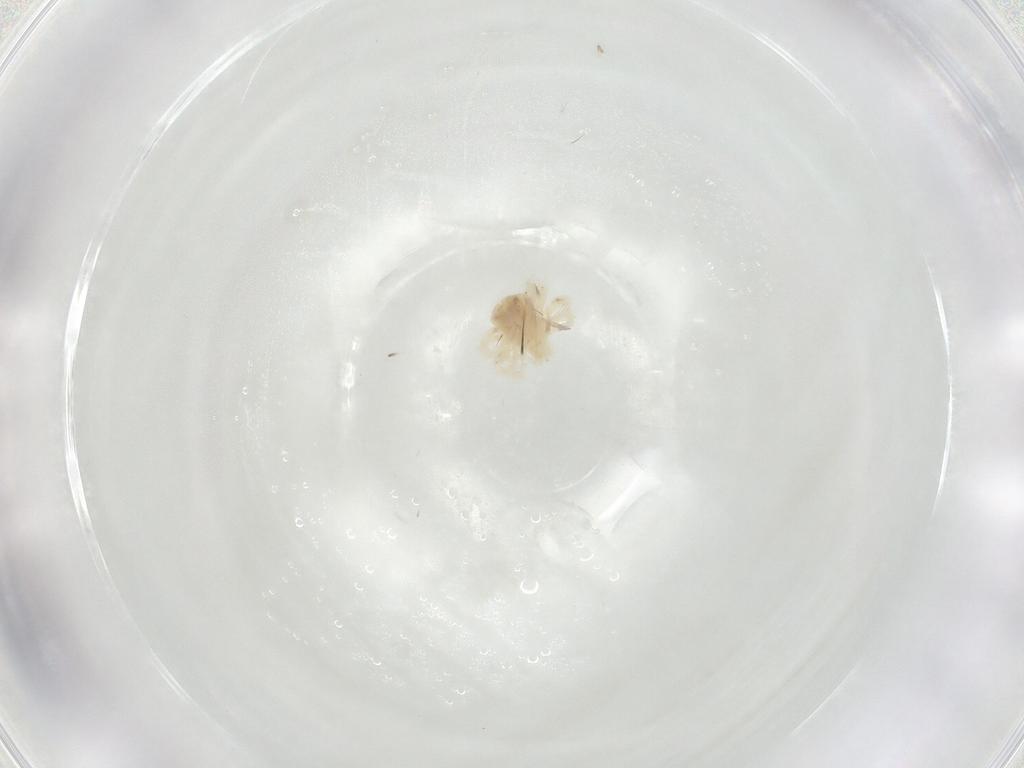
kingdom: Animalia
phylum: Arthropoda
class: Arachnida
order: Trombidiformes
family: Anystidae
